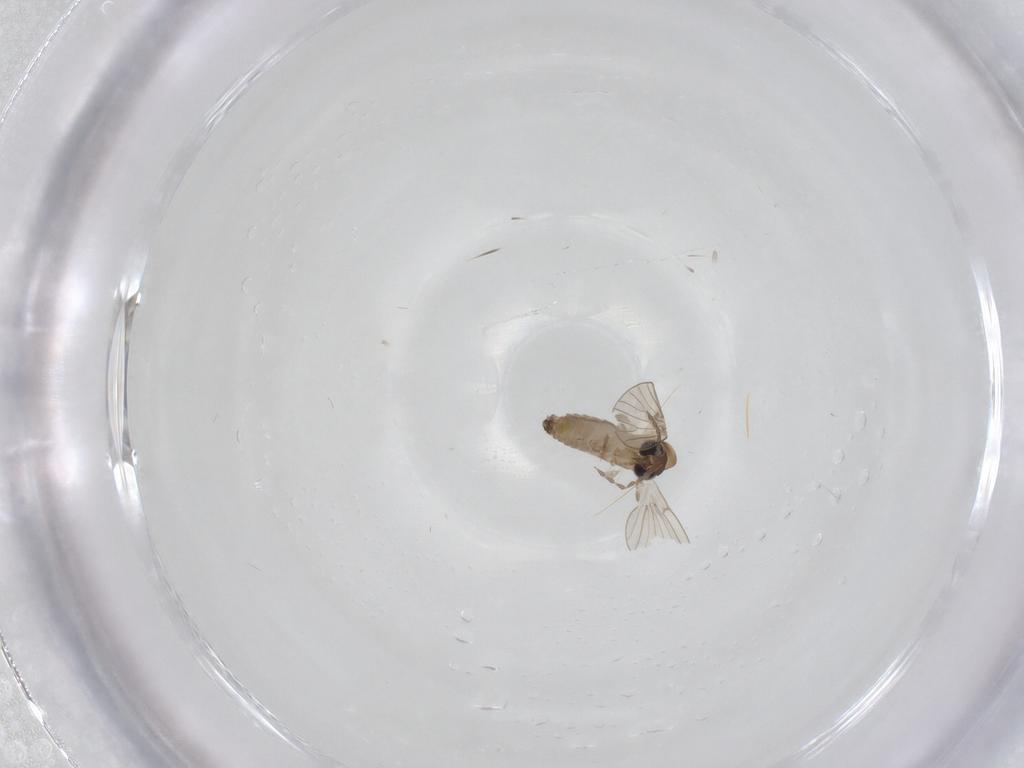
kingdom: Animalia
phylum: Arthropoda
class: Insecta
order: Diptera
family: Psychodidae
